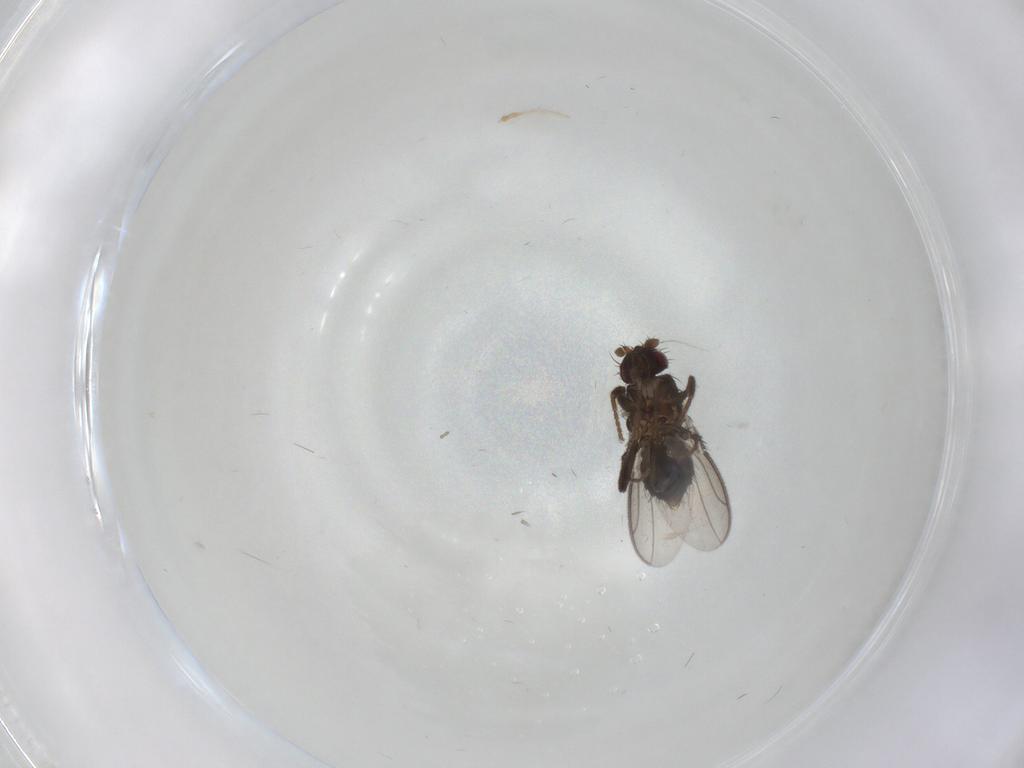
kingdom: Animalia
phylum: Arthropoda
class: Insecta
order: Diptera
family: Sphaeroceridae
